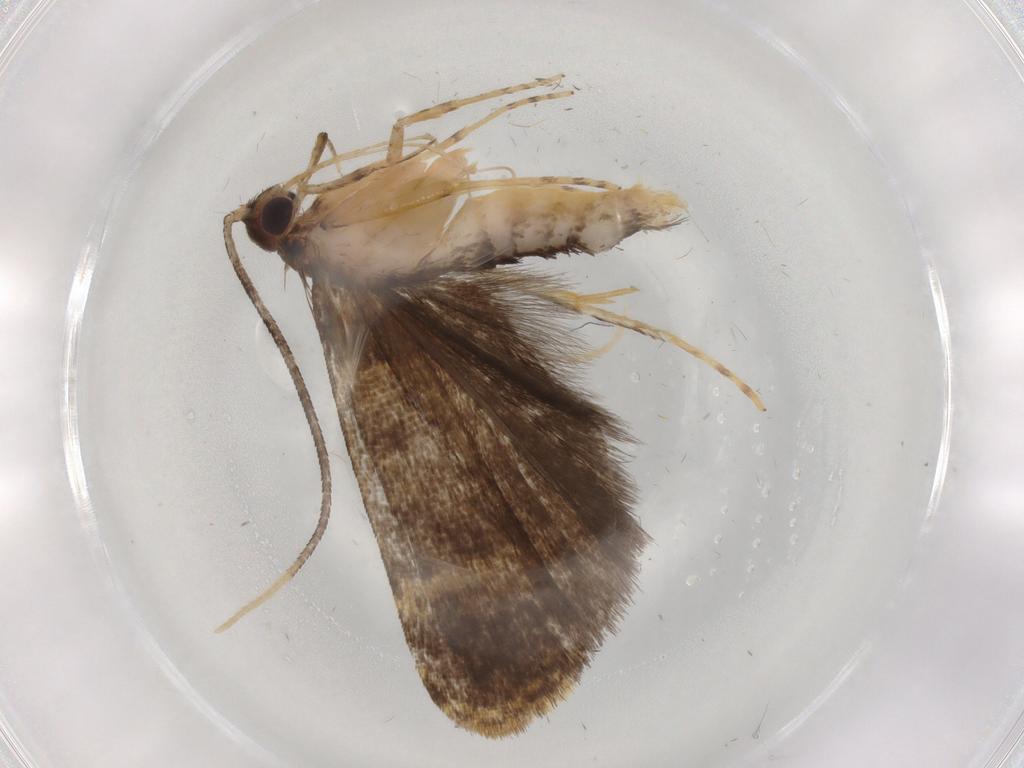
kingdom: Animalia
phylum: Arthropoda
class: Insecta
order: Lepidoptera
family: Cosmopterigidae
